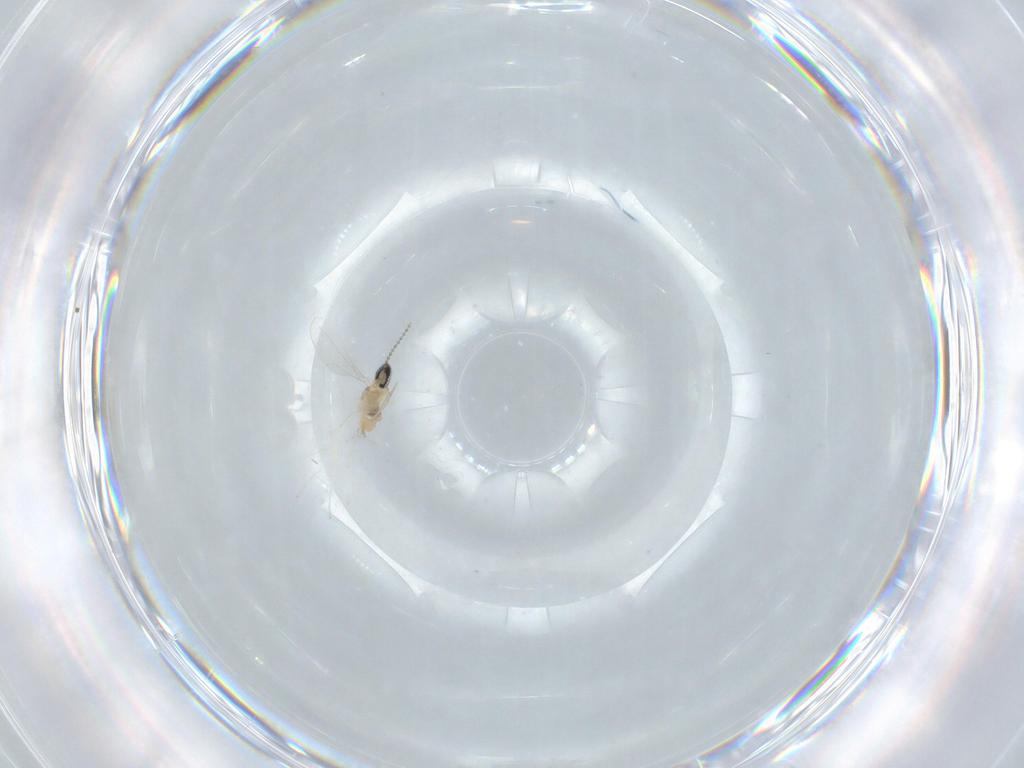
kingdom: Animalia
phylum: Arthropoda
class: Insecta
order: Diptera
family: Cecidomyiidae
